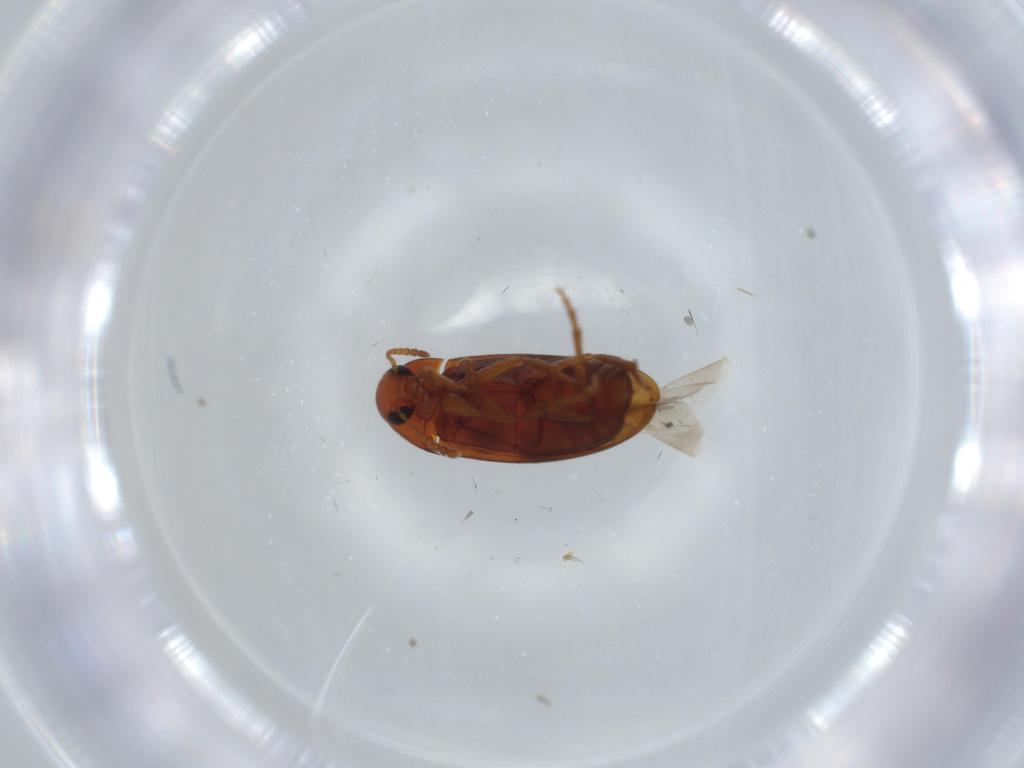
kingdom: Animalia
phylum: Arthropoda
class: Insecta
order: Coleoptera
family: Scraptiidae
